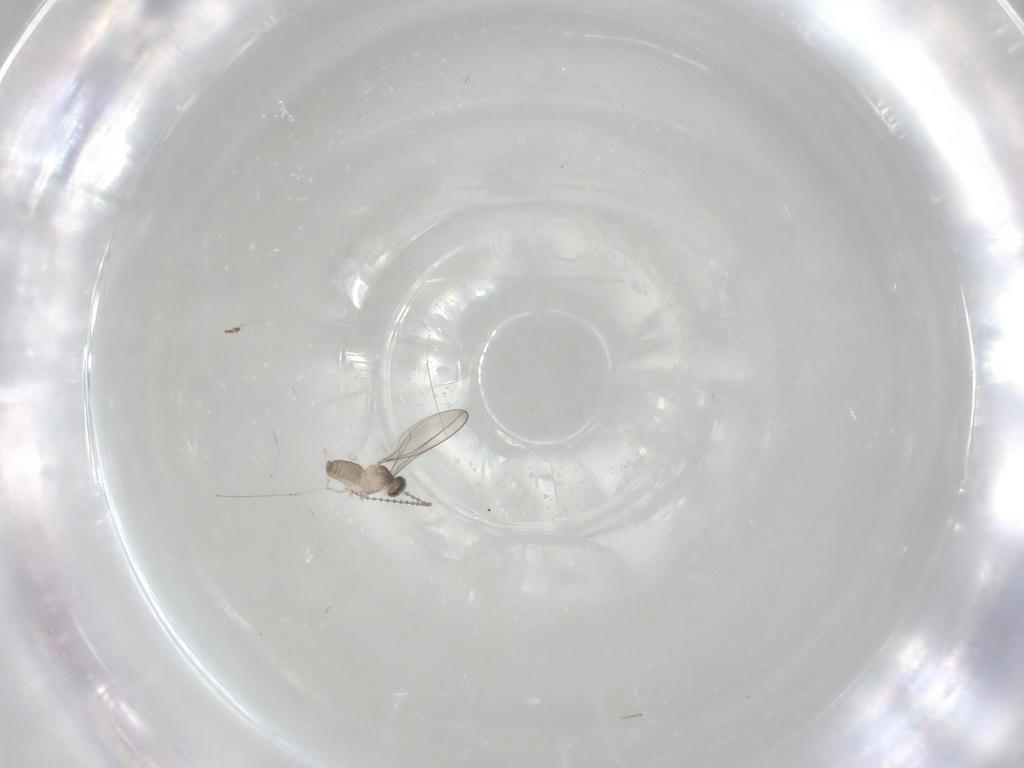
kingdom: Animalia
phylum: Arthropoda
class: Insecta
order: Diptera
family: Cecidomyiidae
